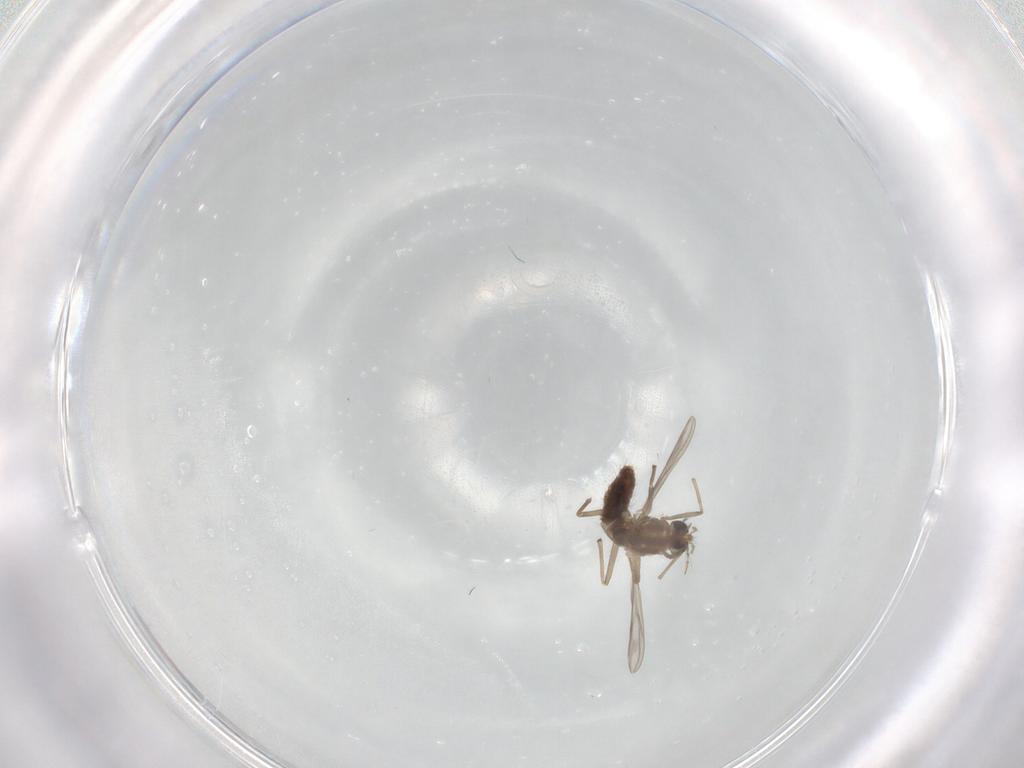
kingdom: Animalia
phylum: Arthropoda
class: Insecta
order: Diptera
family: Chironomidae
